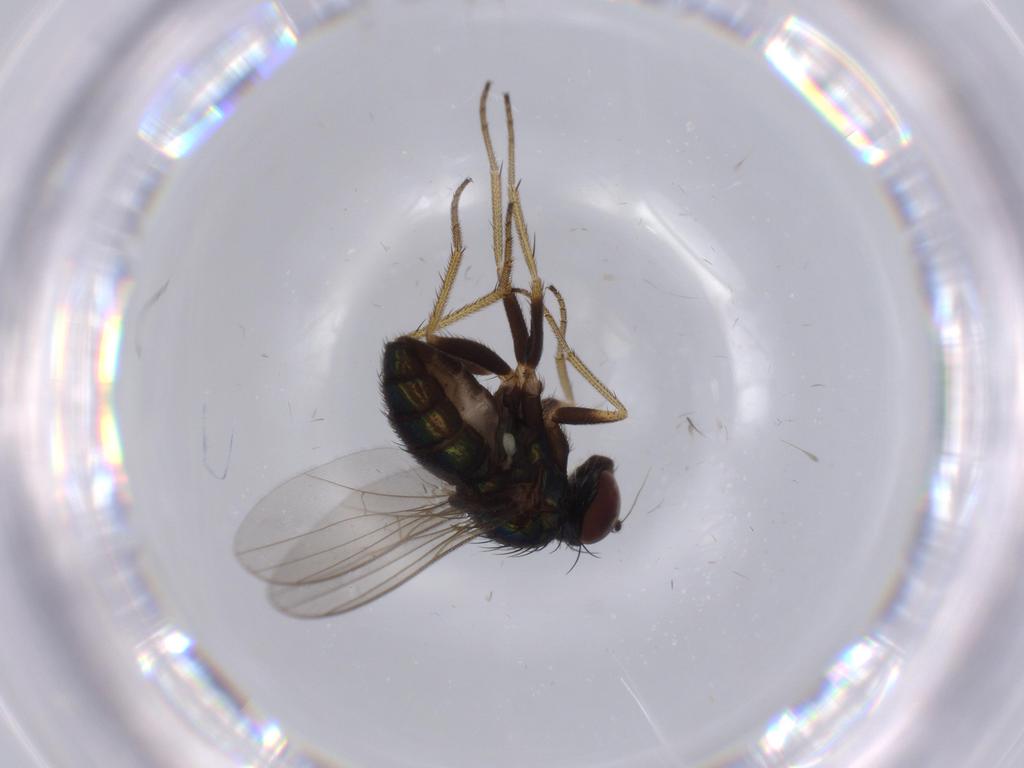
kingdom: Animalia
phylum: Arthropoda
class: Insecta
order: Diptera
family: Dolichopodidae
